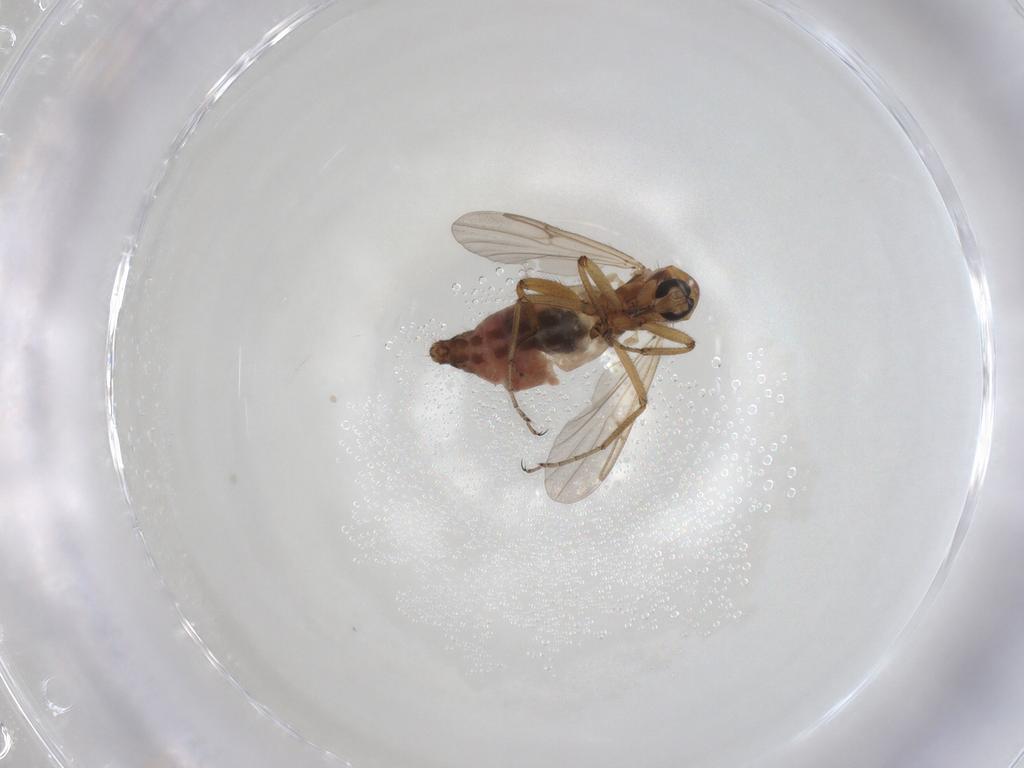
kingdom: Animalia
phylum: Arthropoda
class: Insecta
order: Diptera
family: Ceratopogonidae
